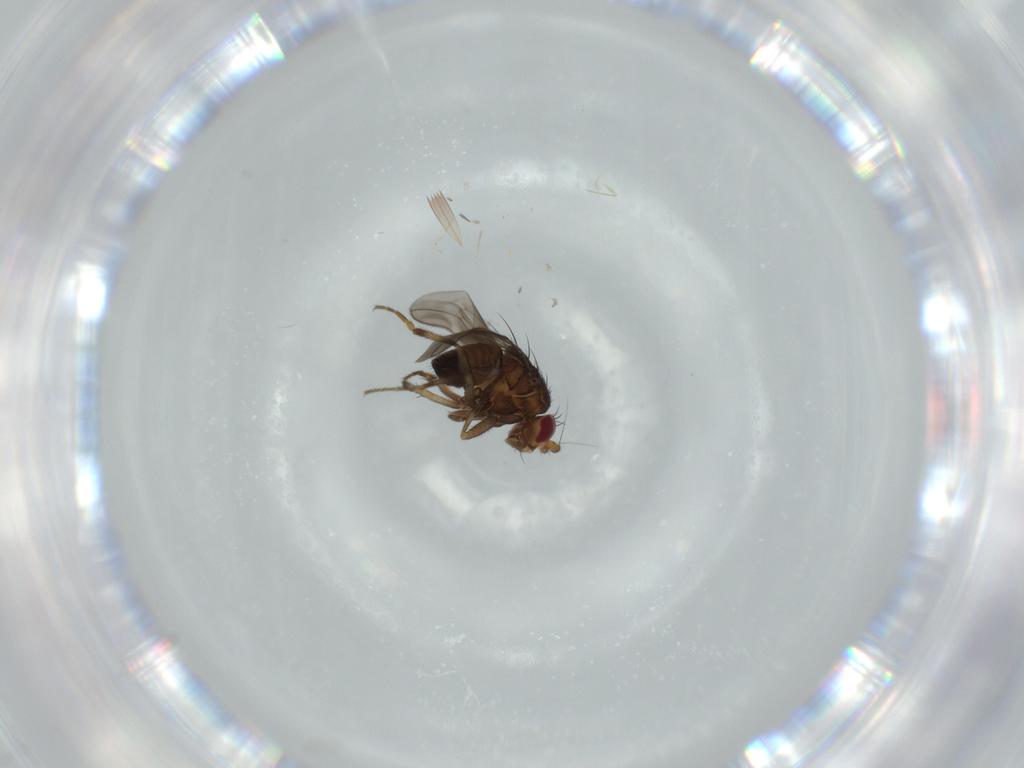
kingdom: Animalia
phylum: Arthropoda
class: Insecta
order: Diptera
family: Sphaeroceridae
